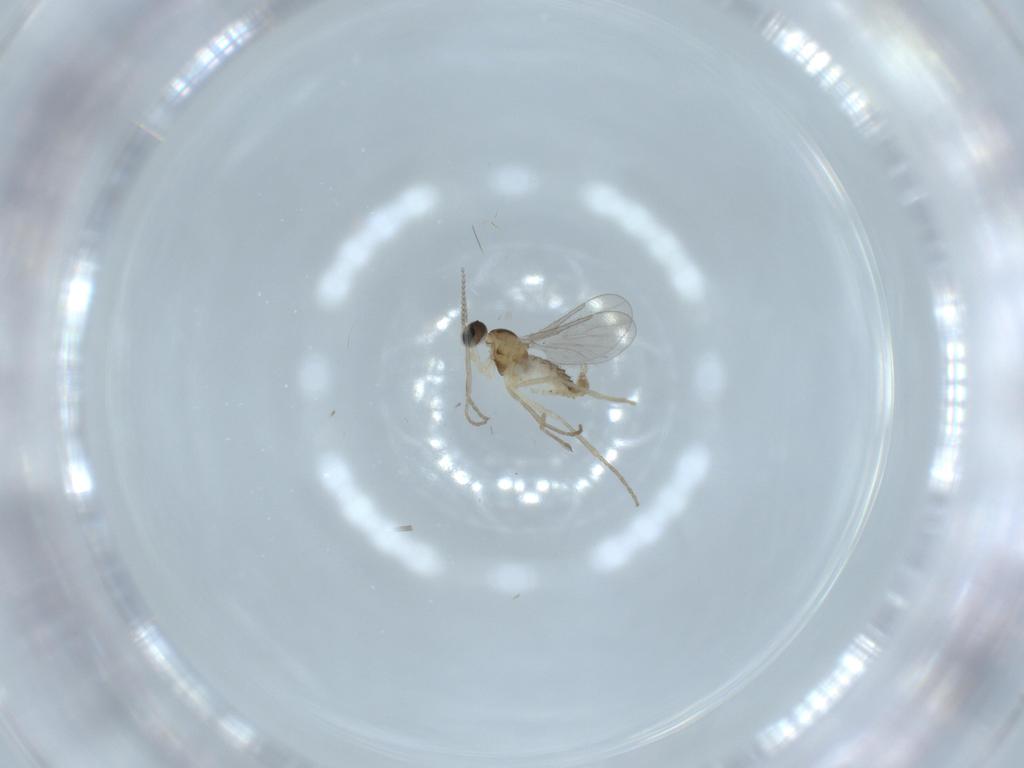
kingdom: Animalia
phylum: Arthropoda
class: Insecta
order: Diptera
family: Cecidomyiidae
